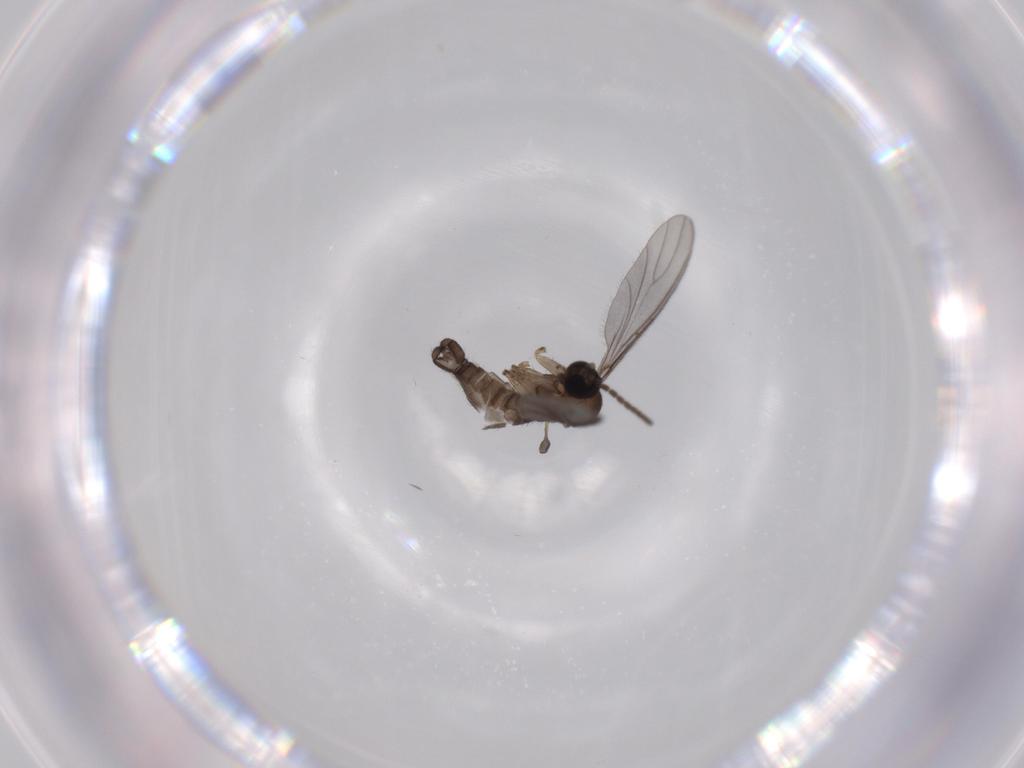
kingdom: Animalia
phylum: Arthropoda
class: Insecta
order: Diptera
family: Sciaridae
